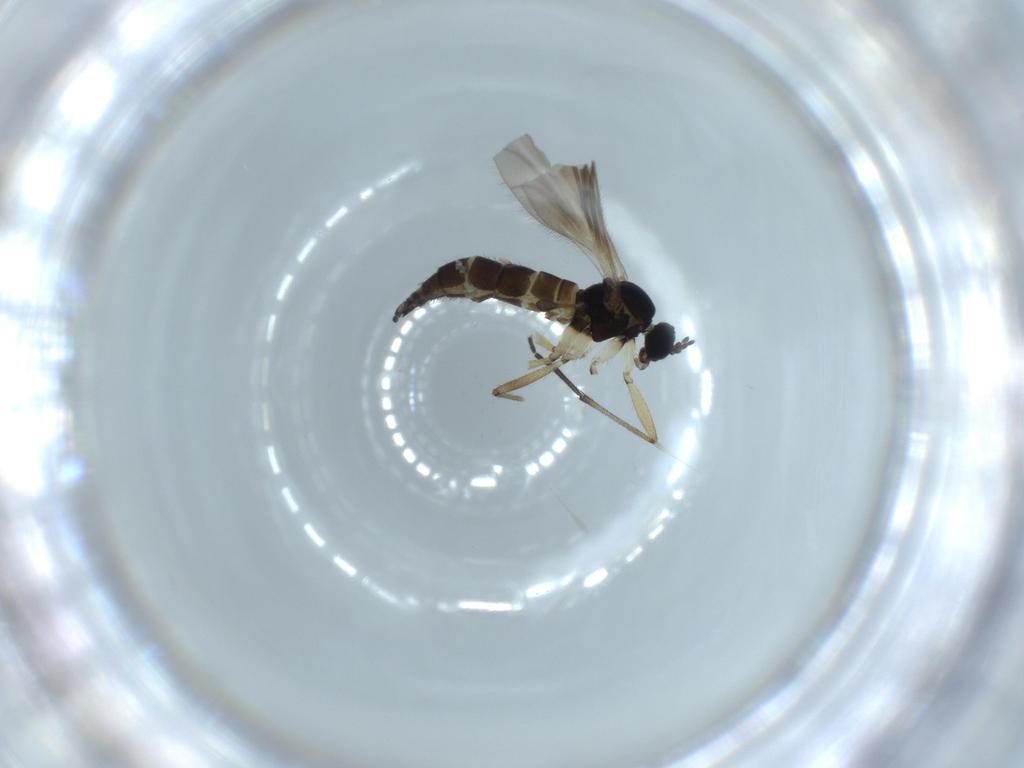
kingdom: Animalia
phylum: Arthropoda
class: Insecta
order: Diptera
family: Sciaridae
